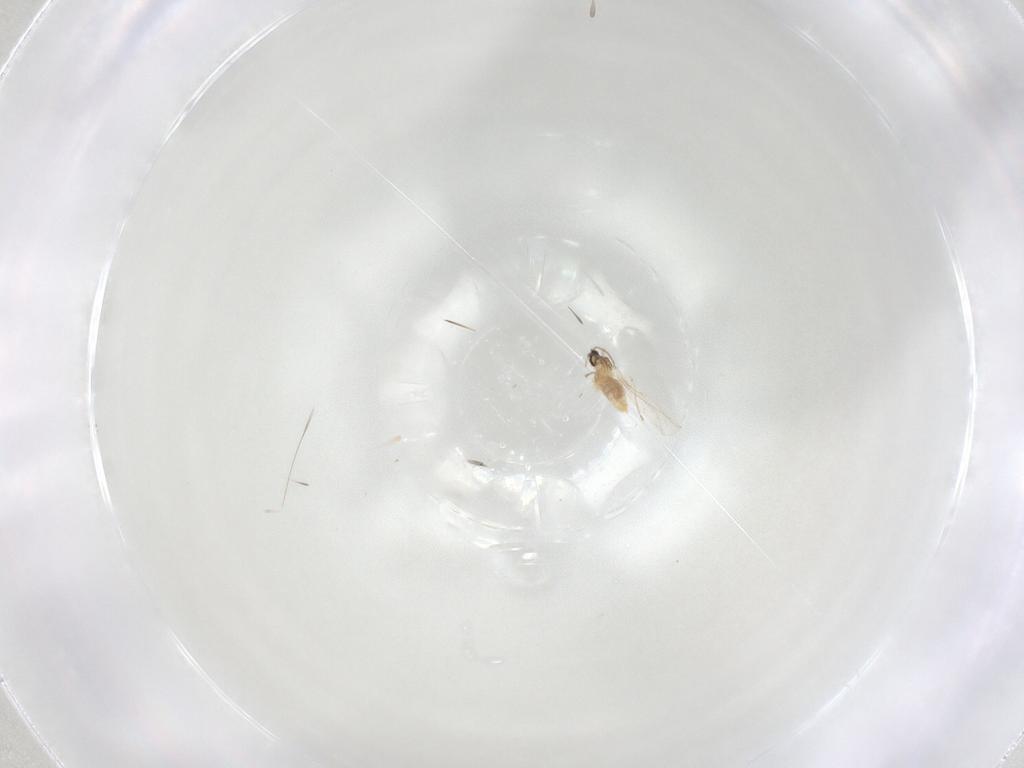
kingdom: Animalia
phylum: Arthropoda
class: Insecta
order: Diptera
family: Cecidomyiidae
